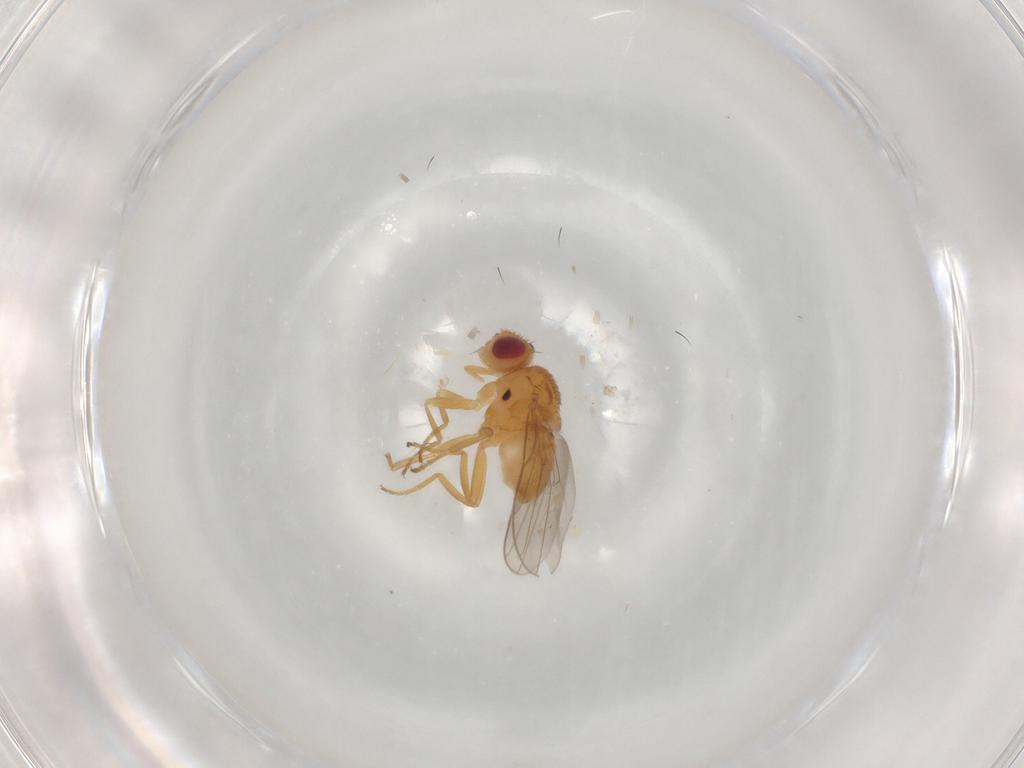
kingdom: Animalia
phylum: Arthropoda
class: Insecta
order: Diptera
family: Chloropidae
